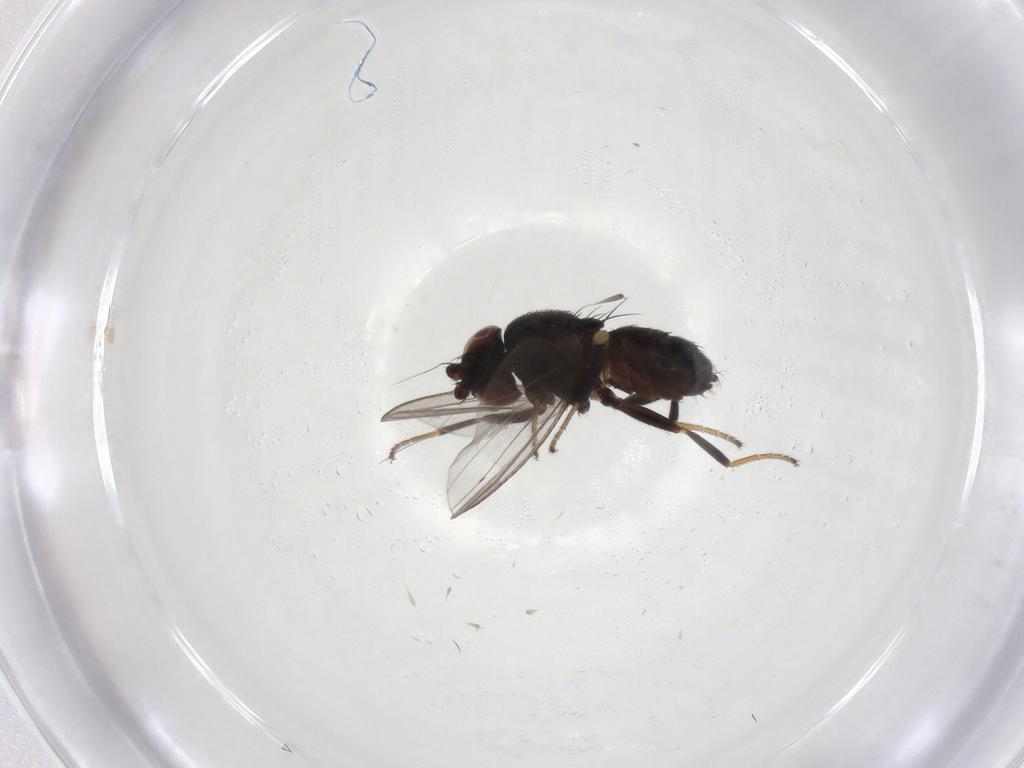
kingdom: Animalia
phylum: Arthropoda
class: Insecta
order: Diptera
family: Milichiidae
